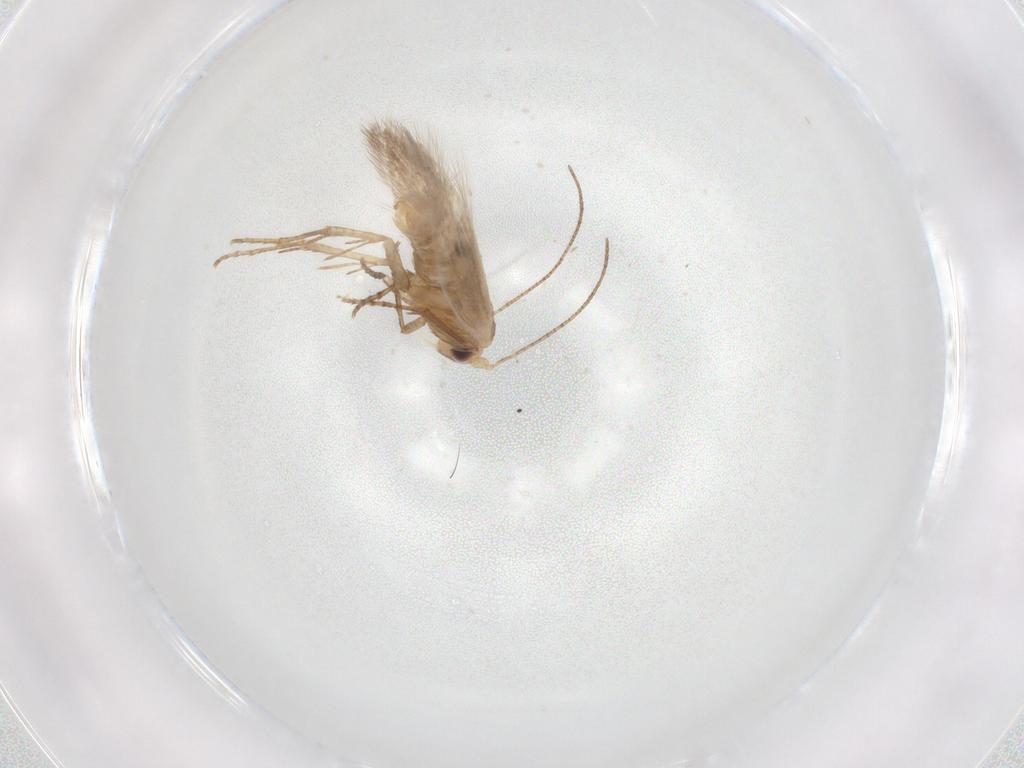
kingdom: Animalia
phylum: Arthropoda
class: Insecta
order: Lepidoptera
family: Bucculatricidae
